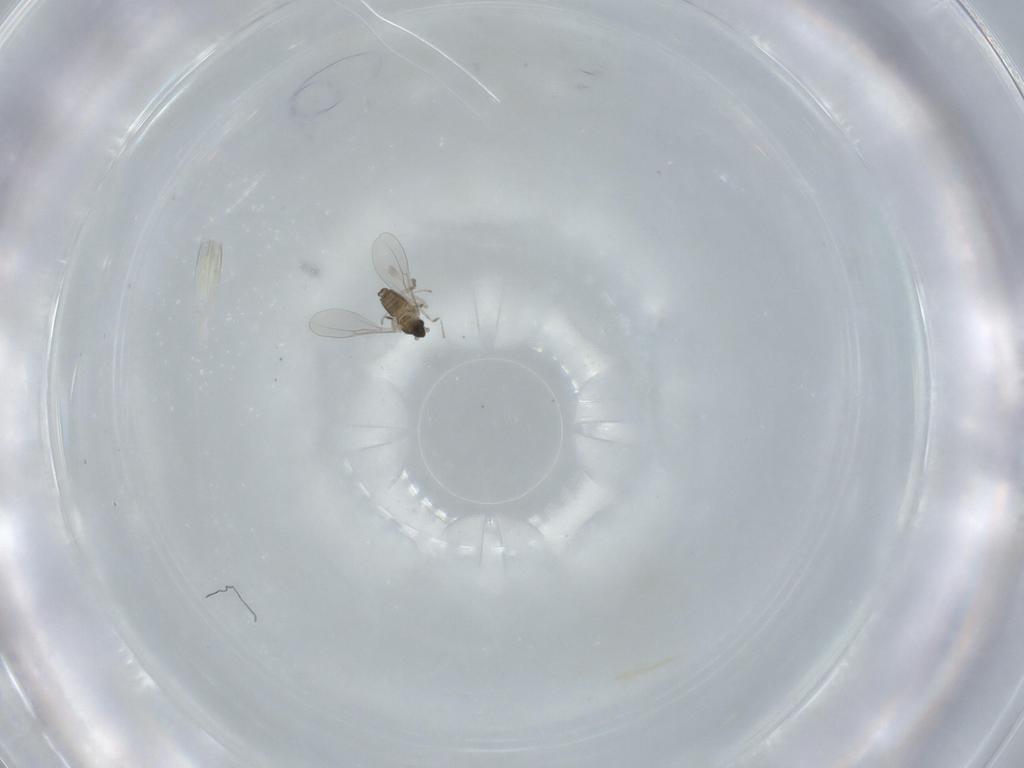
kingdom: Animalia
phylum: Arthropoda
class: Insecta
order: Diptera
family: Cecidomyiidae
